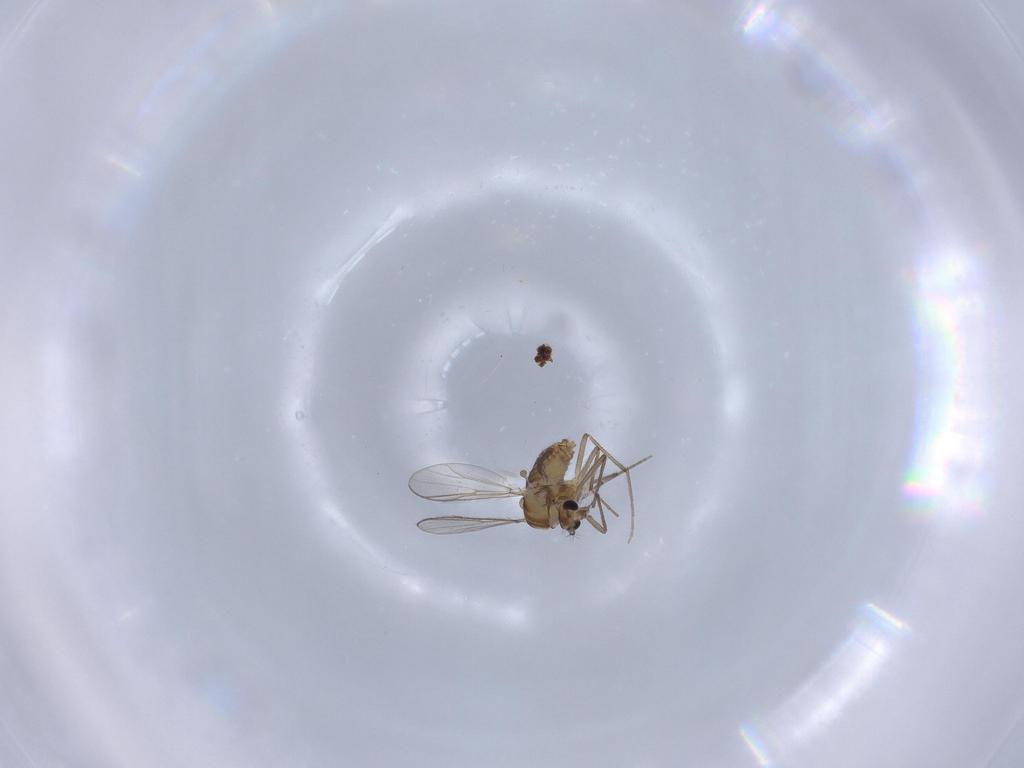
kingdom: Animalia
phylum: Arthropoda
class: Insecta
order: Diptera
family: Chironomidae
